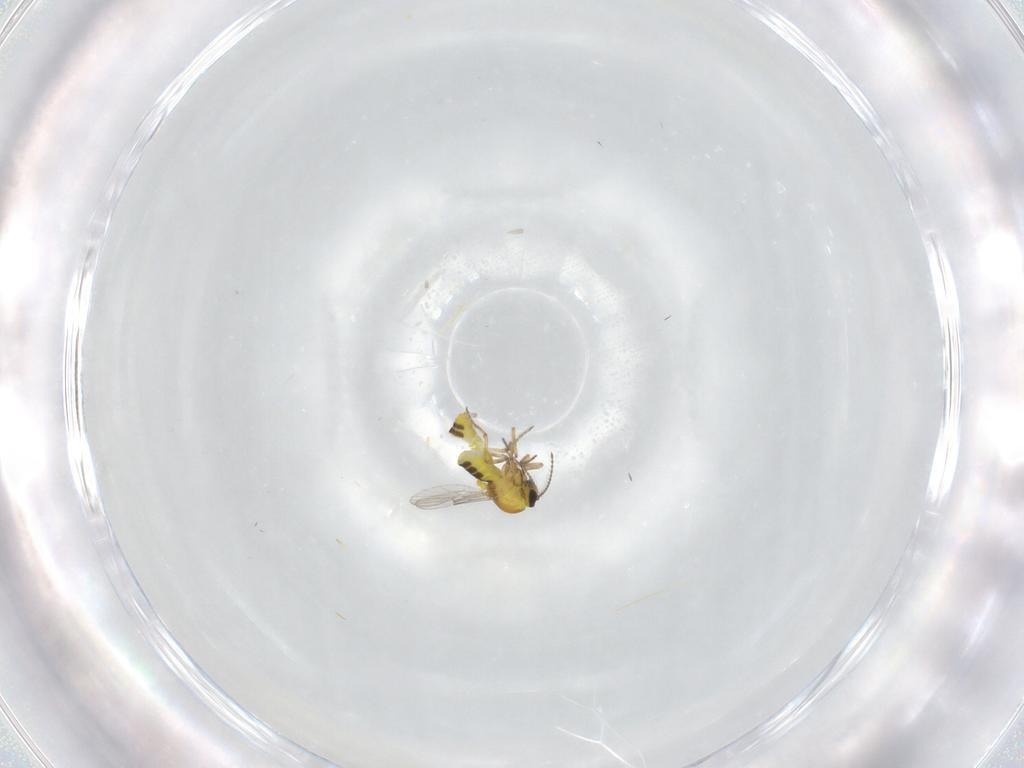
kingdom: Animalia
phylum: Arthropoda
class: Insecta
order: Diptera
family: Ceratopogonidae
